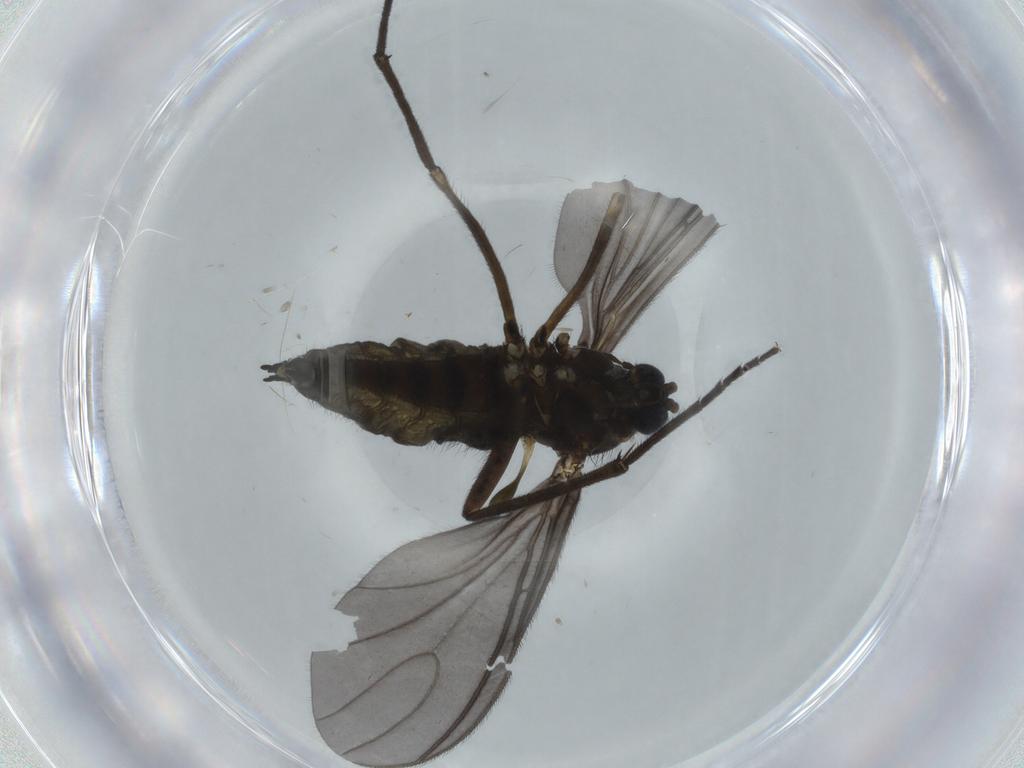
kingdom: Animalia
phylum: Arthropoda
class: Insecta
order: Diptera
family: Sciaridae
